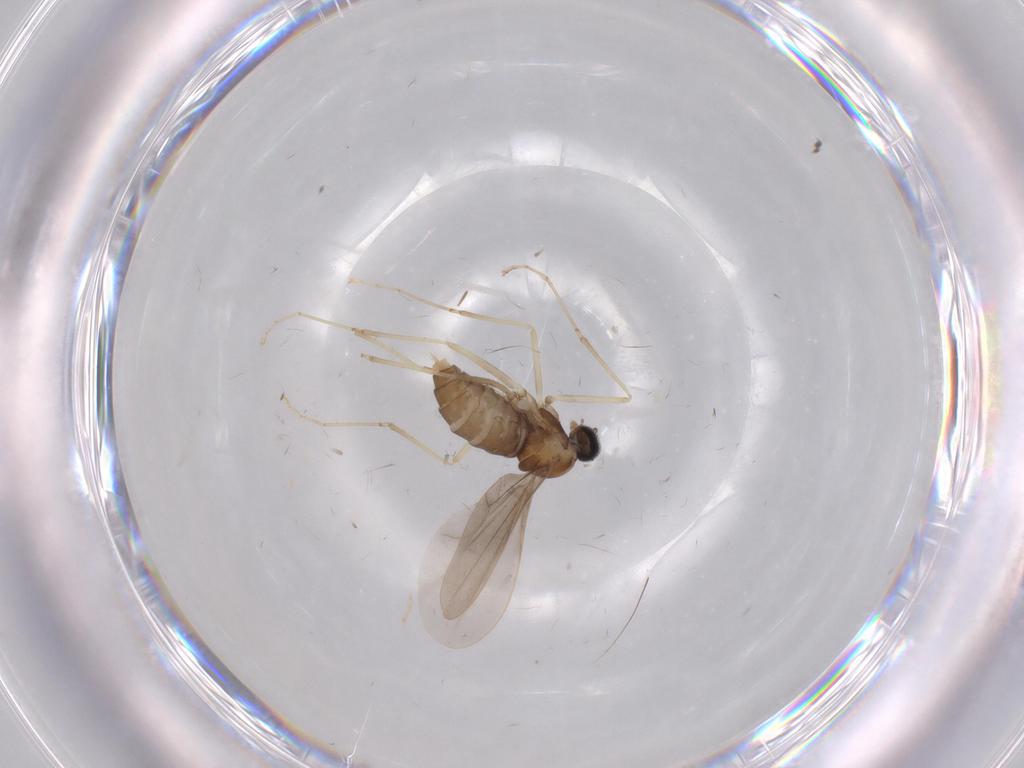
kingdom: Animalia
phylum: Arthropoda
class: Insecta
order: Diptera
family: Cecidomyiidae
